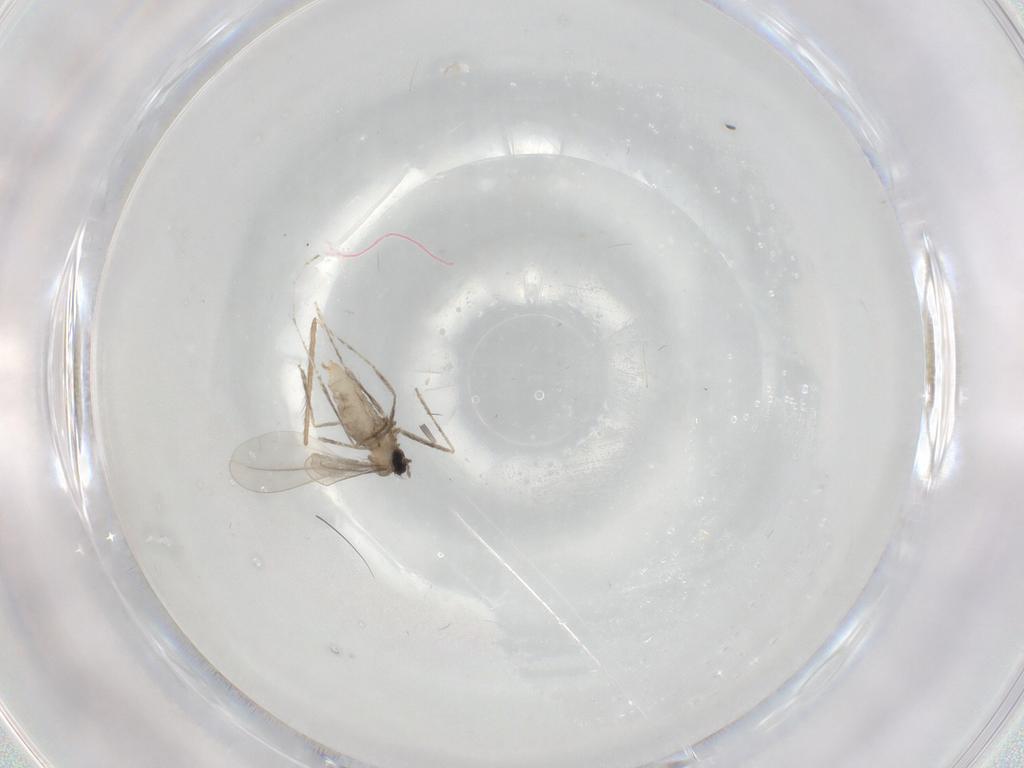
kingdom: Animalia
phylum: Arthropoda
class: Insecta
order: Diptera
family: Chironomidae
